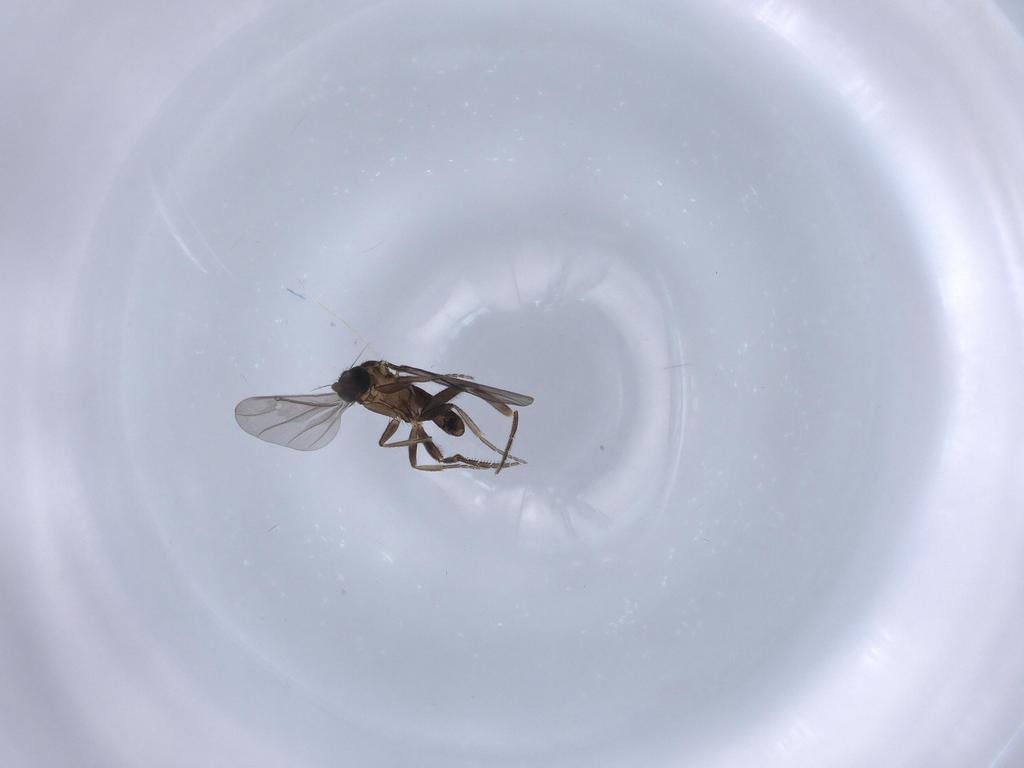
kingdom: Animalia
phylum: Arthropoda
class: Insecta
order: Diptera
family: Phoridae
